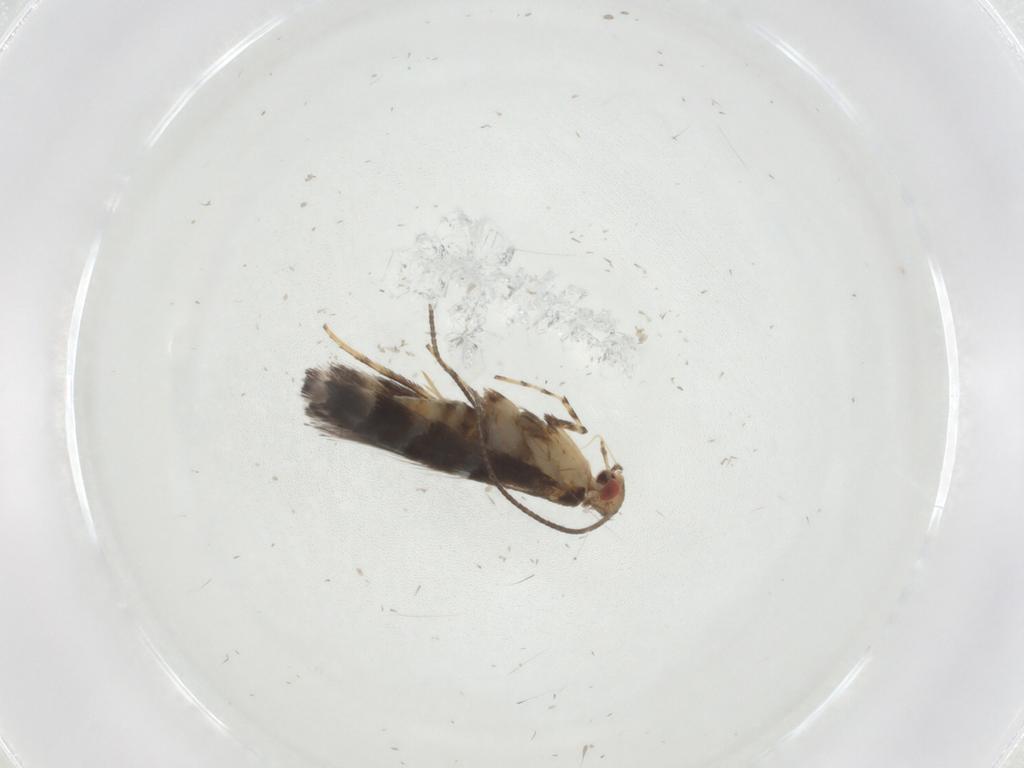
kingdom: Animalia
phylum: Arthropoda
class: Insecta
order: Lepidoptera
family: Gracillariidae
